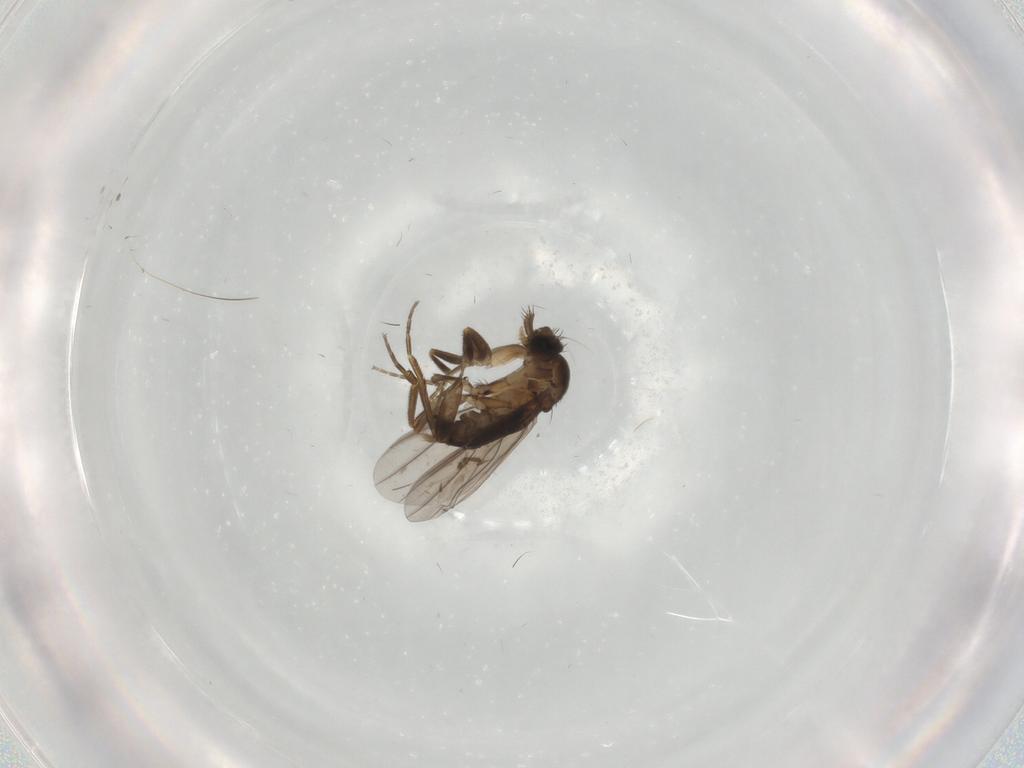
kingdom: Animalia
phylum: Arthropoda
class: Insecta
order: Diptera
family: Phoridae
